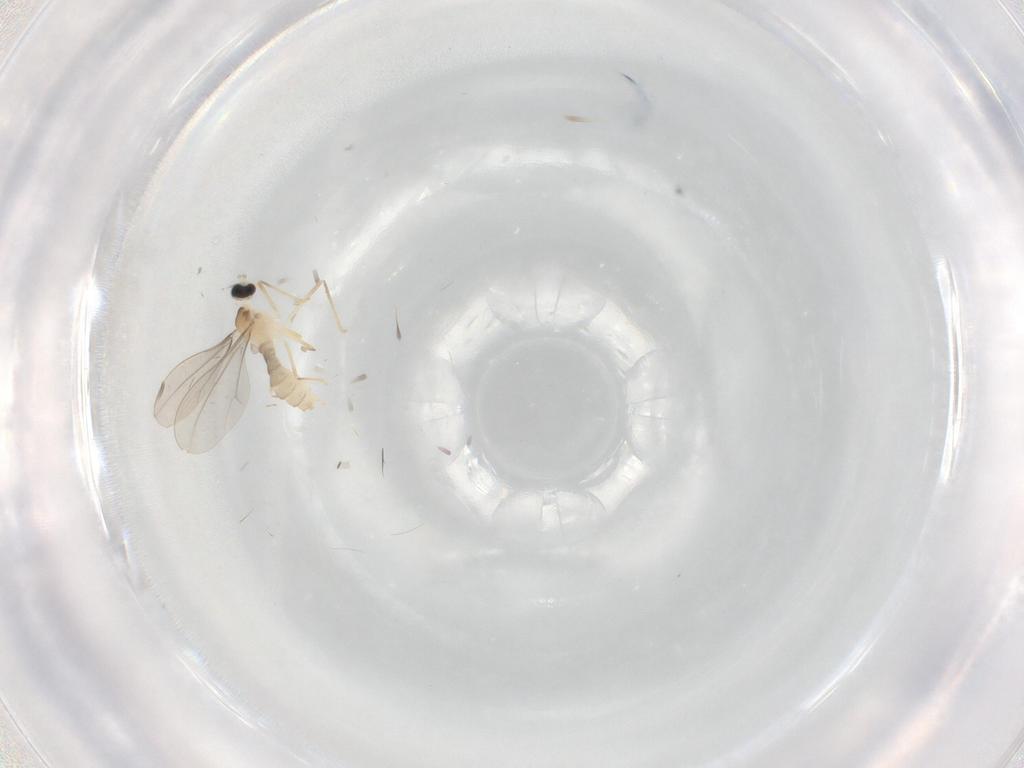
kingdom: Animalia
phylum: Arthropoda
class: Insecta
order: Diptera
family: Cecidomyiidae
